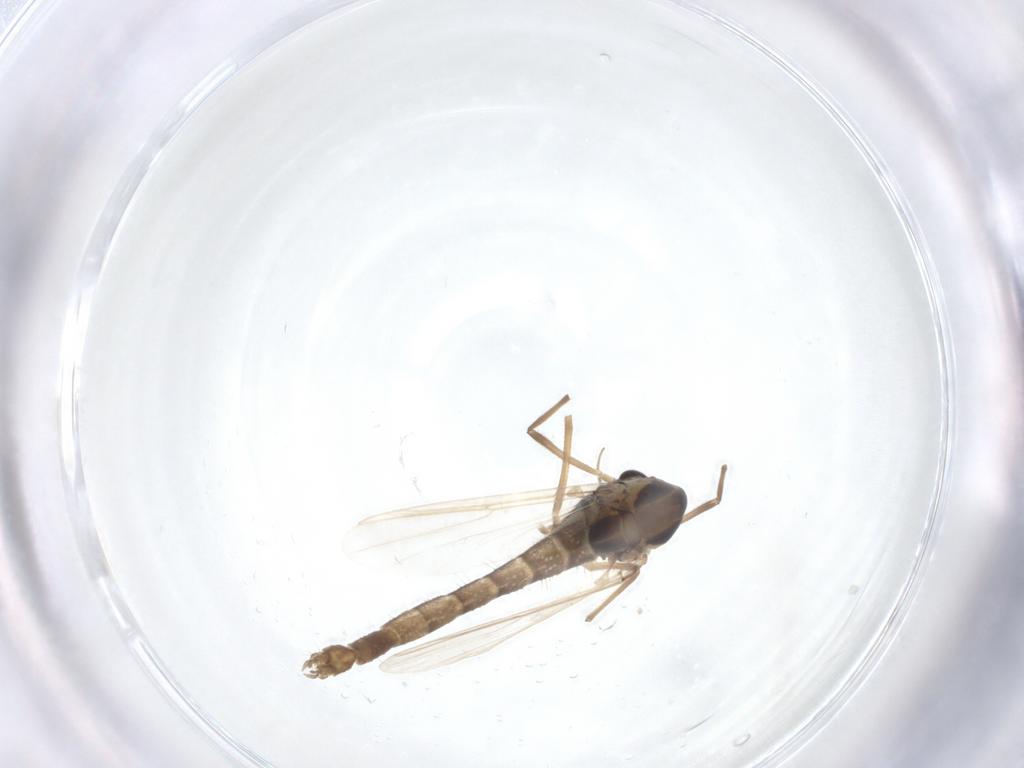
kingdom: Animalia
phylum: Arthropoda
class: Insecta
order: Diptera
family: Chironomidae
